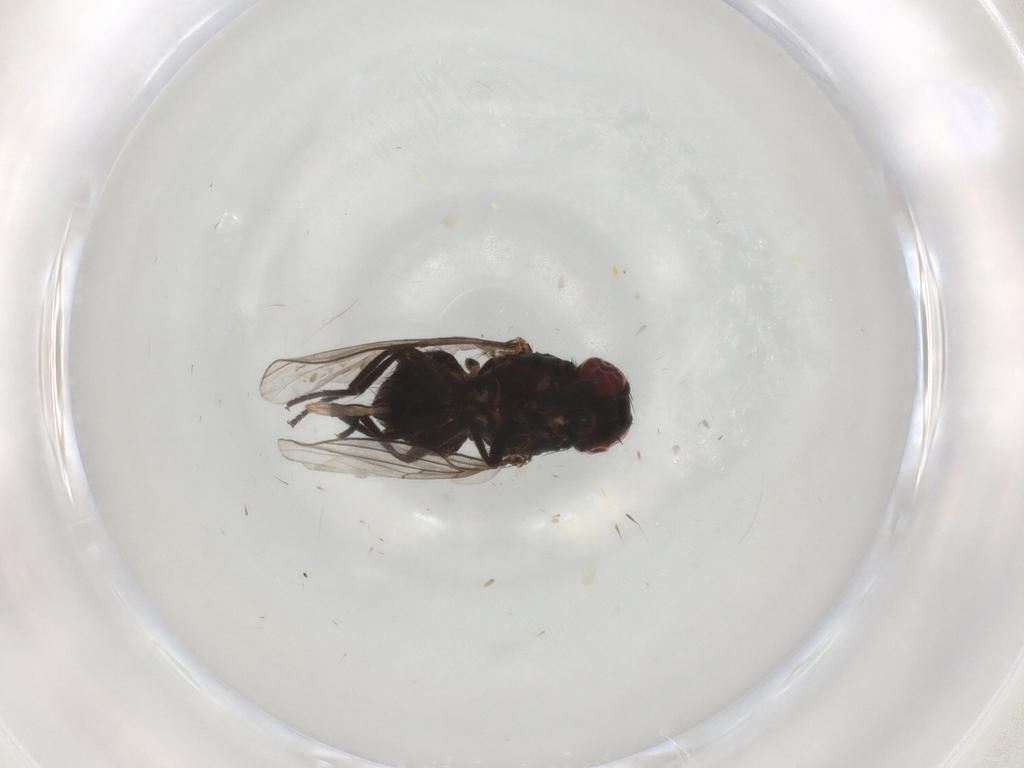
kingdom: Animalia
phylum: Arthropoda
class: Insecta
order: Diptera
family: Agromyzidae
